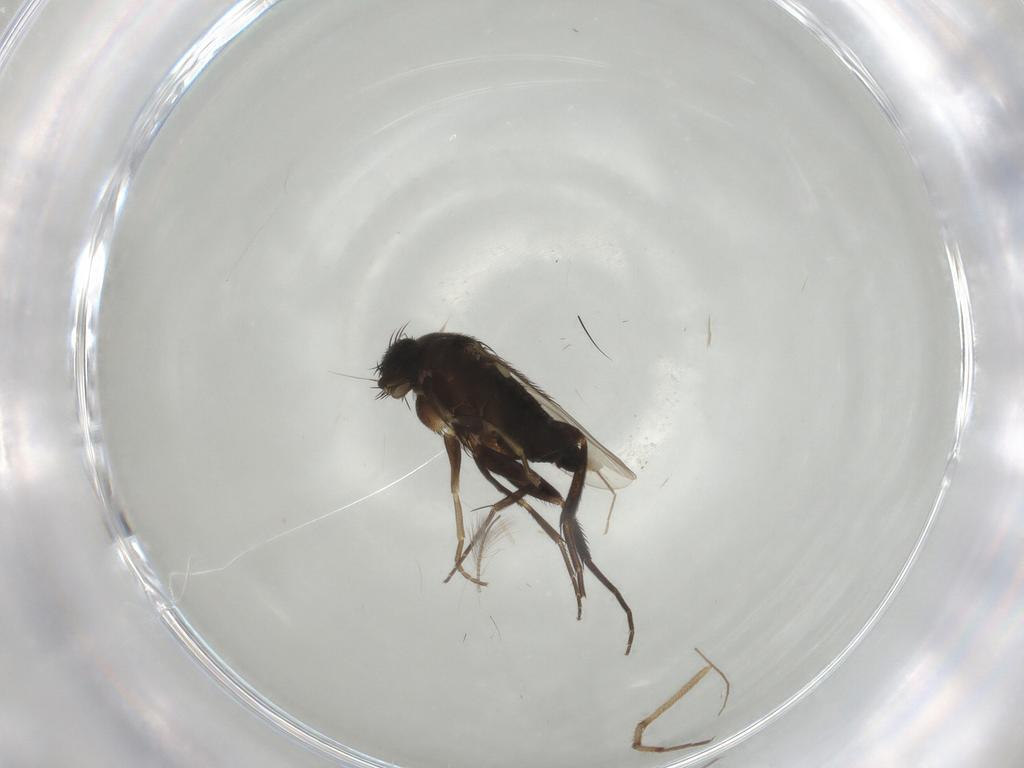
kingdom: Animalia
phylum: Arthropoda
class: Insecta
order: Diptera
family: Phoridae
